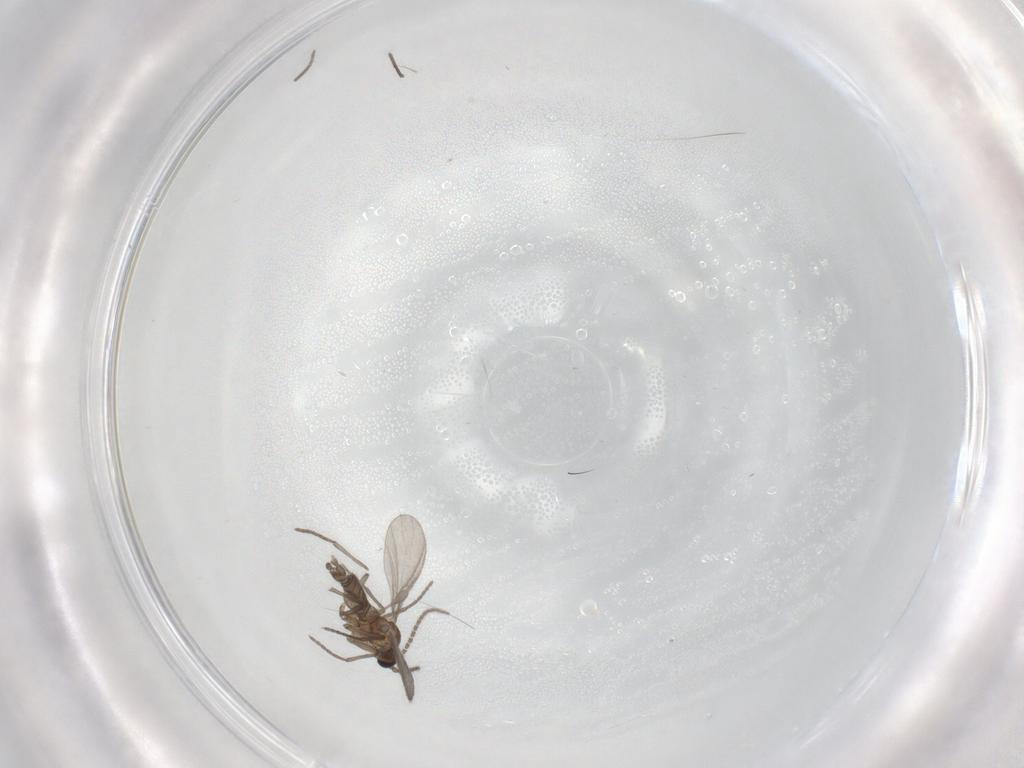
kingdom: Animalia
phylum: Arthropoda
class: Insecta
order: Diptera
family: Sciaridae
